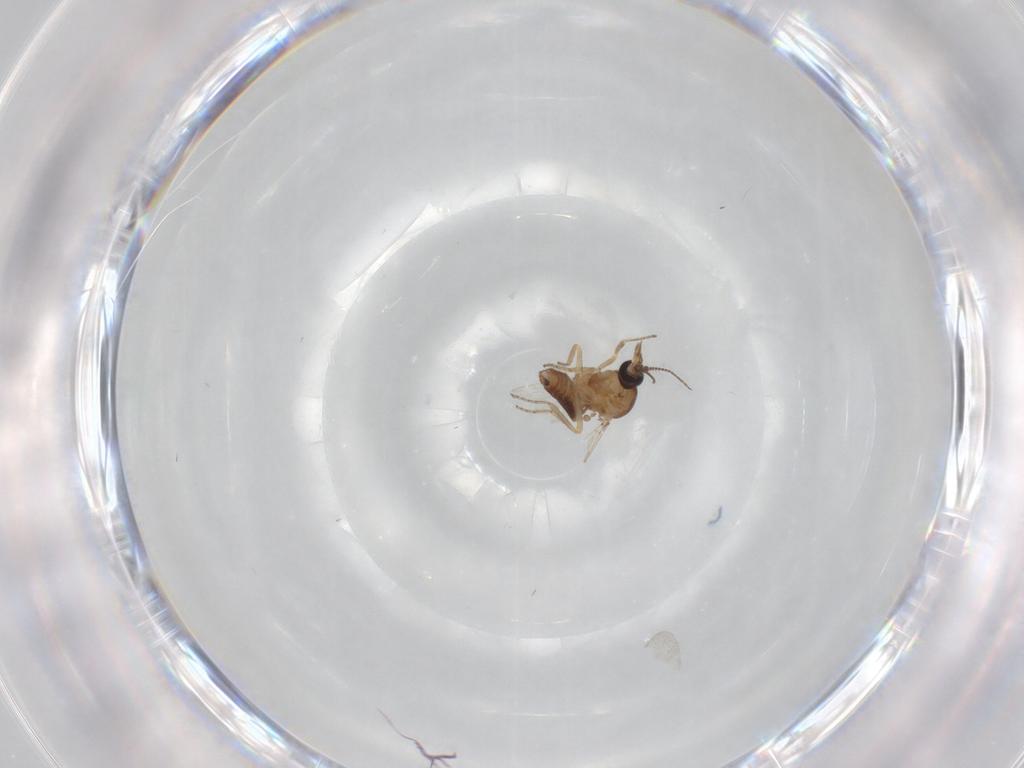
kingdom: Animalia
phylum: Arthropoda
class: Insecta
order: Diptera
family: Ceratopogonidae
